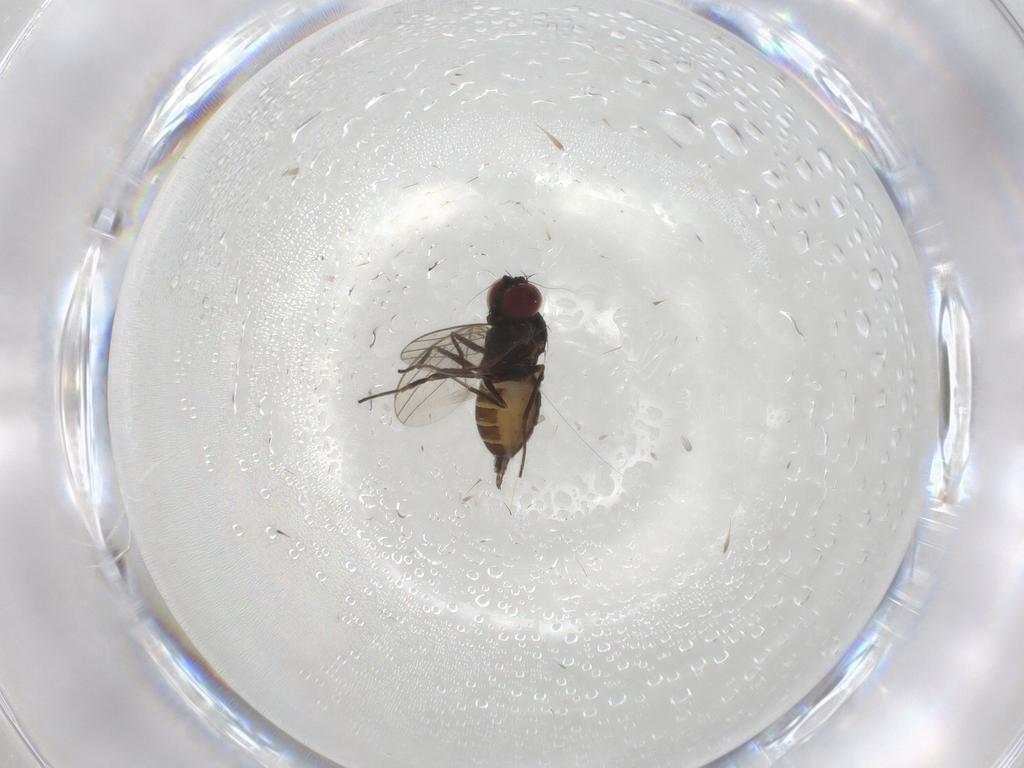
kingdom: Animalia
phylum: Arthropoda
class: Insecta
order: Diptera
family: Dolichopodidae
